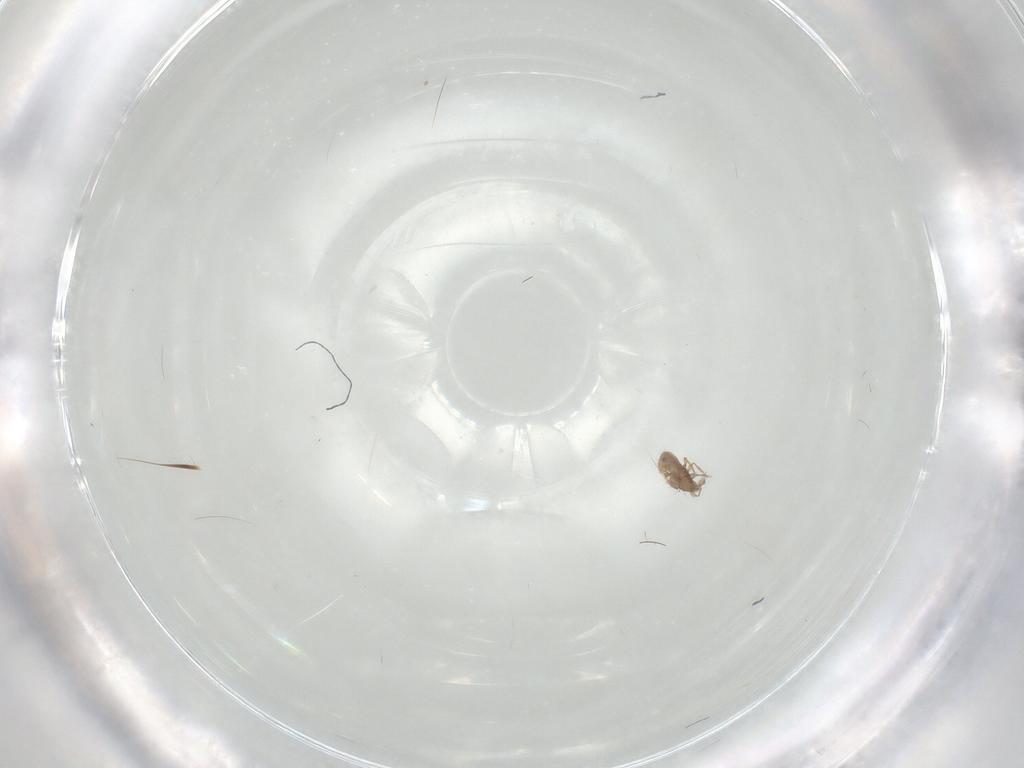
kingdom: Animalia
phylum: Arthropoda
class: Arachnida
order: Sarcoptiformes
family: Oribatulidae
